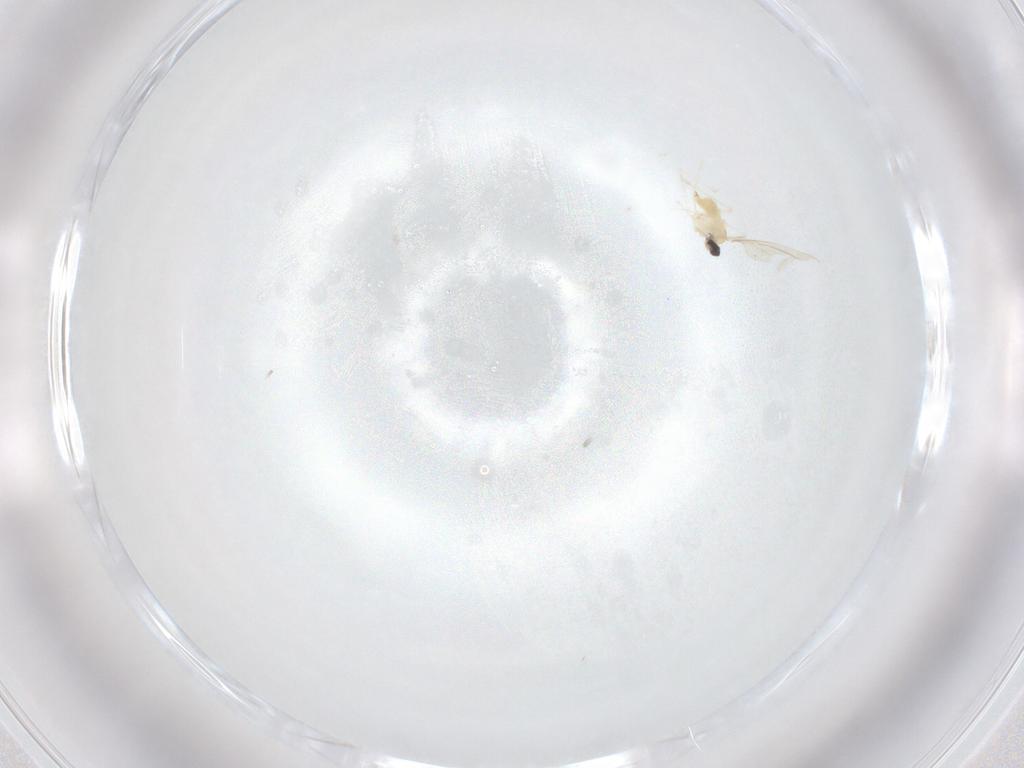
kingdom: Animalia
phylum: Arthropoda
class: Insecta
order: Diptera
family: Cecidomyiidae
